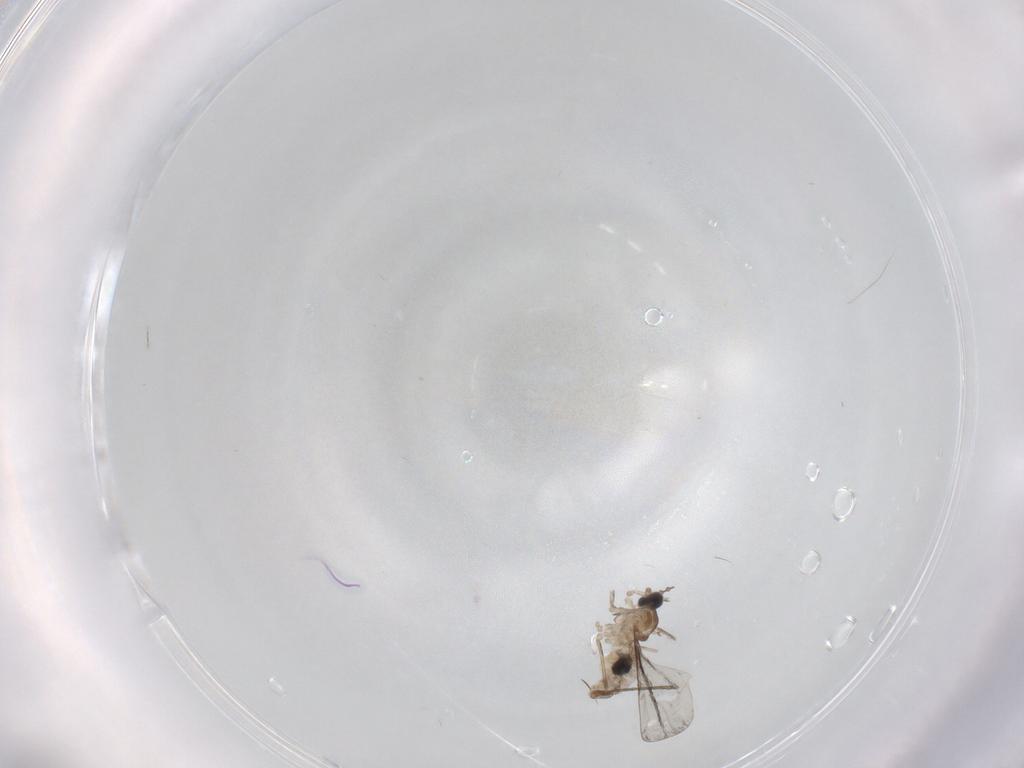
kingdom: Animalia
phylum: Arthropoda
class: Insecta
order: Diptera
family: Cecidomyiidae
